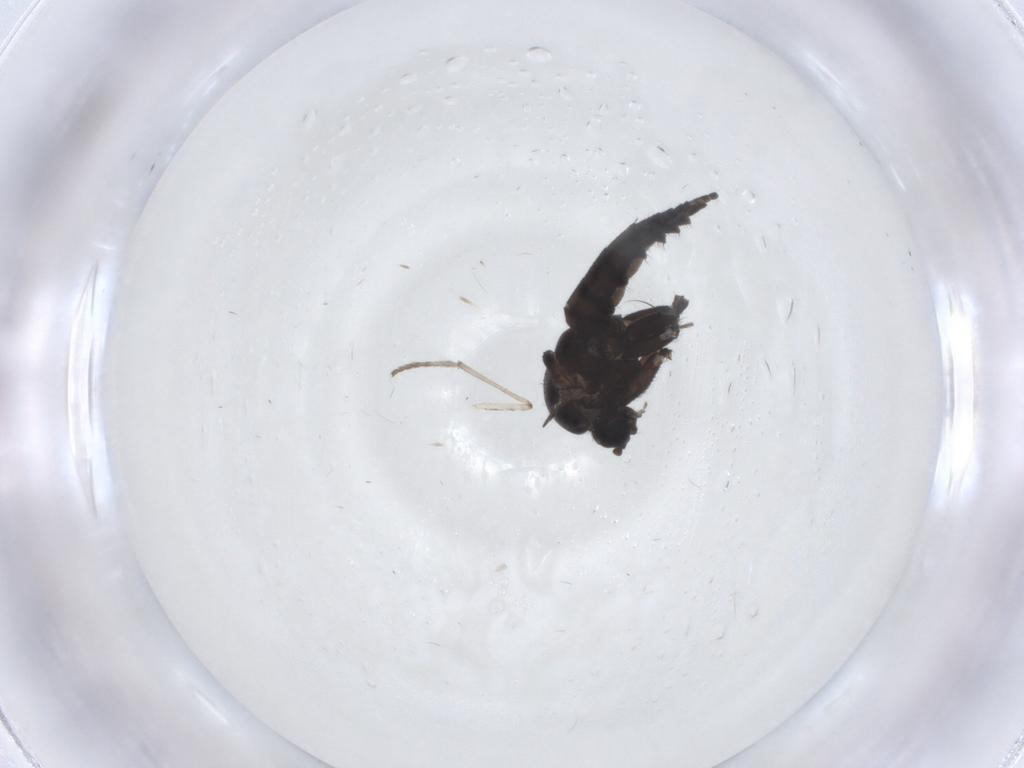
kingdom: Animalia
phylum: Arthropoda
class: Insecta
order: Diptera
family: Sciaridae
